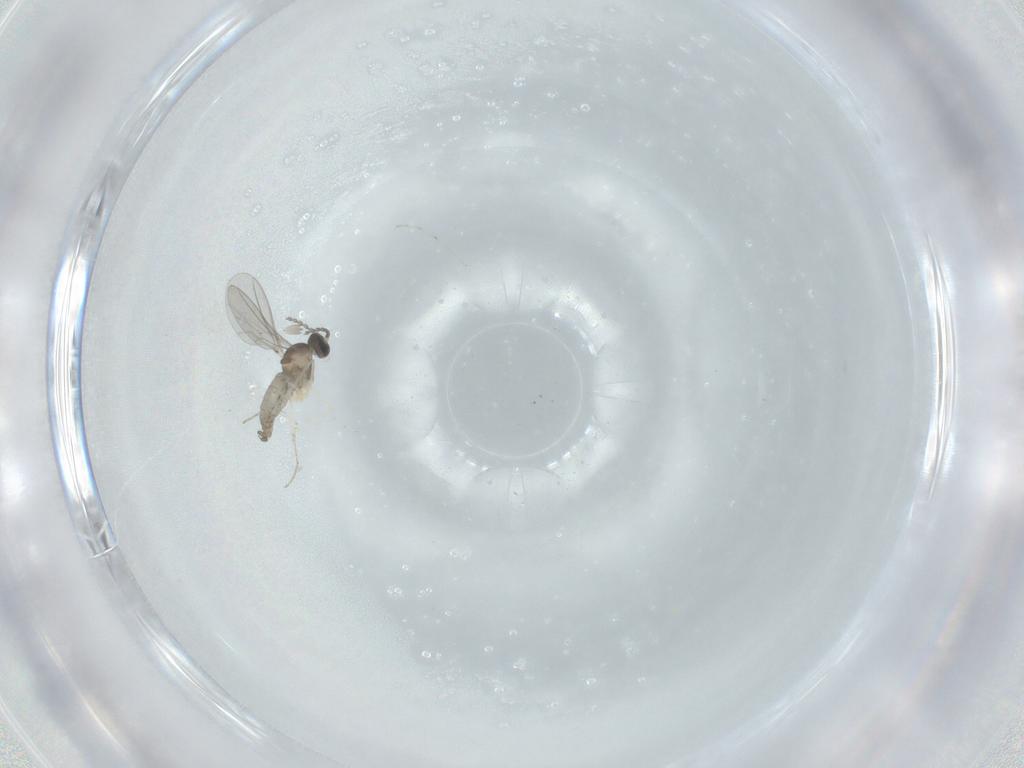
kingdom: Animalia
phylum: Arthropoda
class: Insecta
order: Diptera
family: Cecidomyiidae
